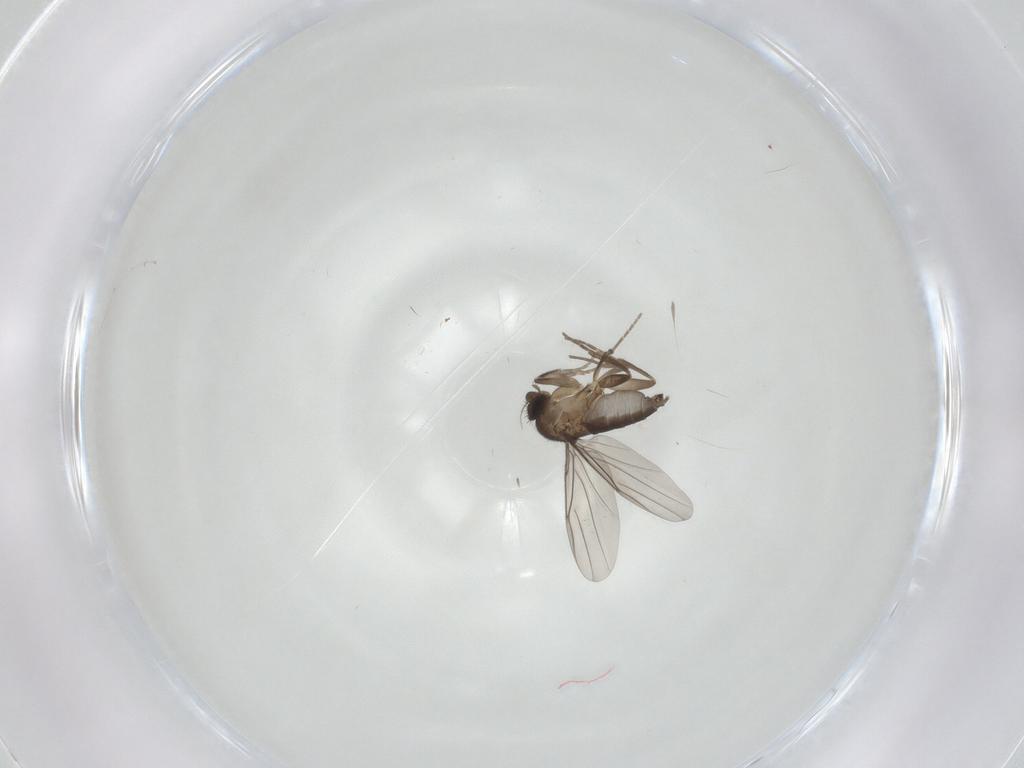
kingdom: Animalia
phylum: Arthropoda
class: Insecta
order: Diptera
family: Phoridae
